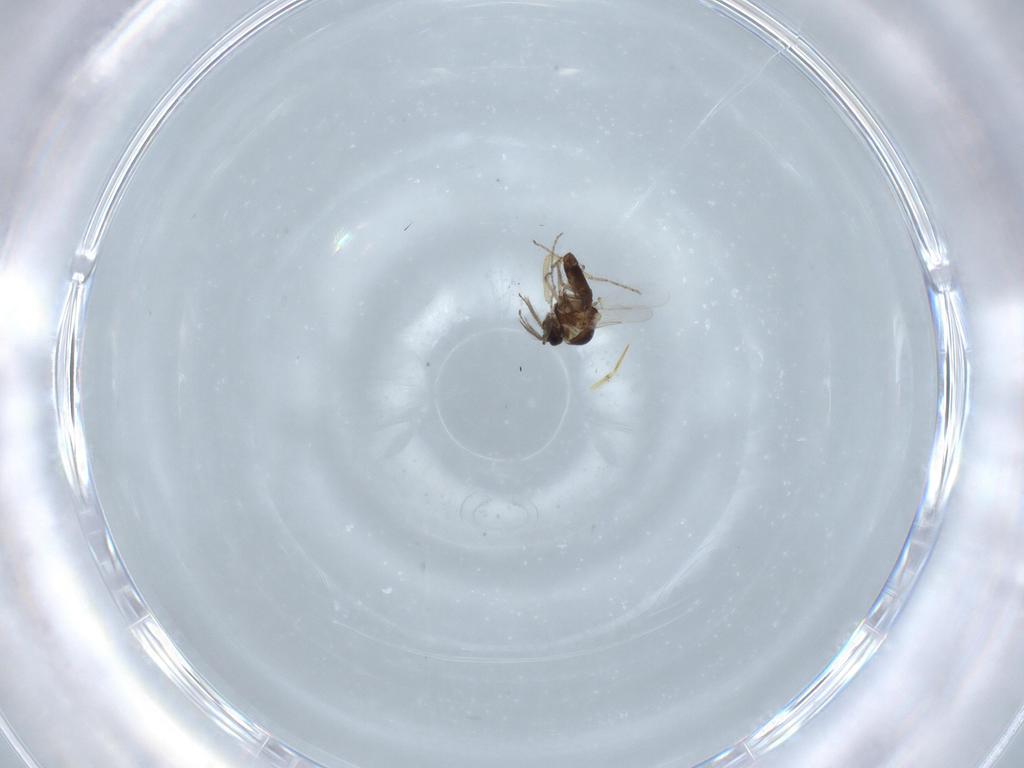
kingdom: Animalia
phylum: Arthropoda
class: Insecta
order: Diptera
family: Ceratopogonidae
